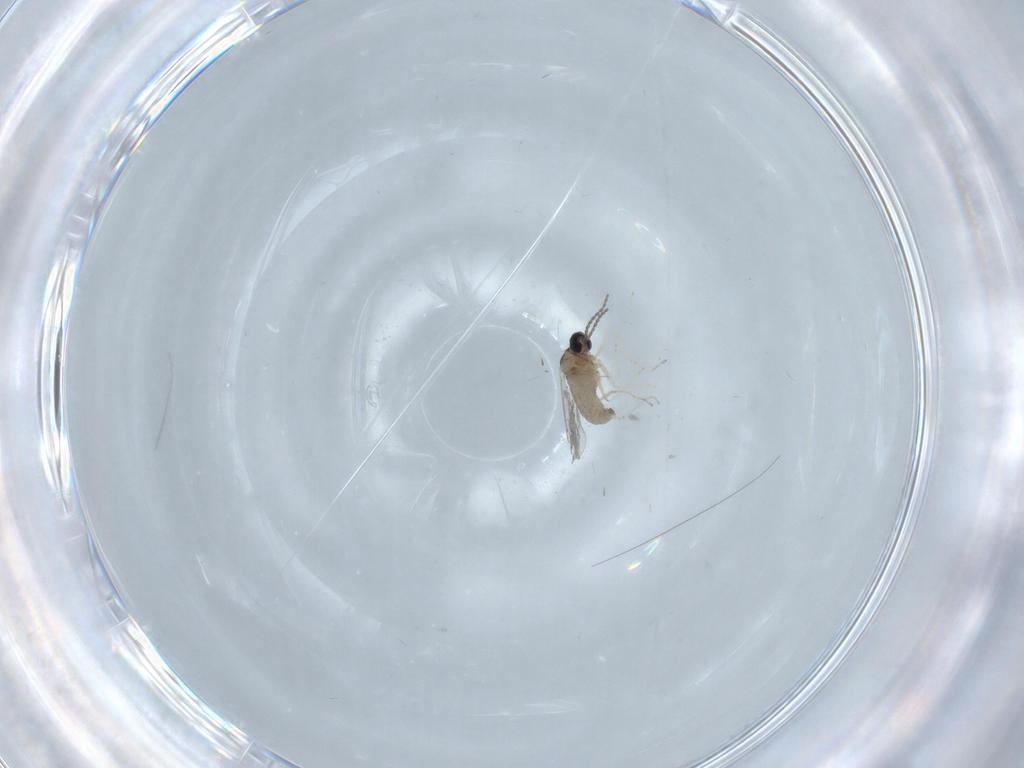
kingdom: Animalia
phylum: Arthropoda
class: Insecta
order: Diptera
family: Cecidomyiidae
